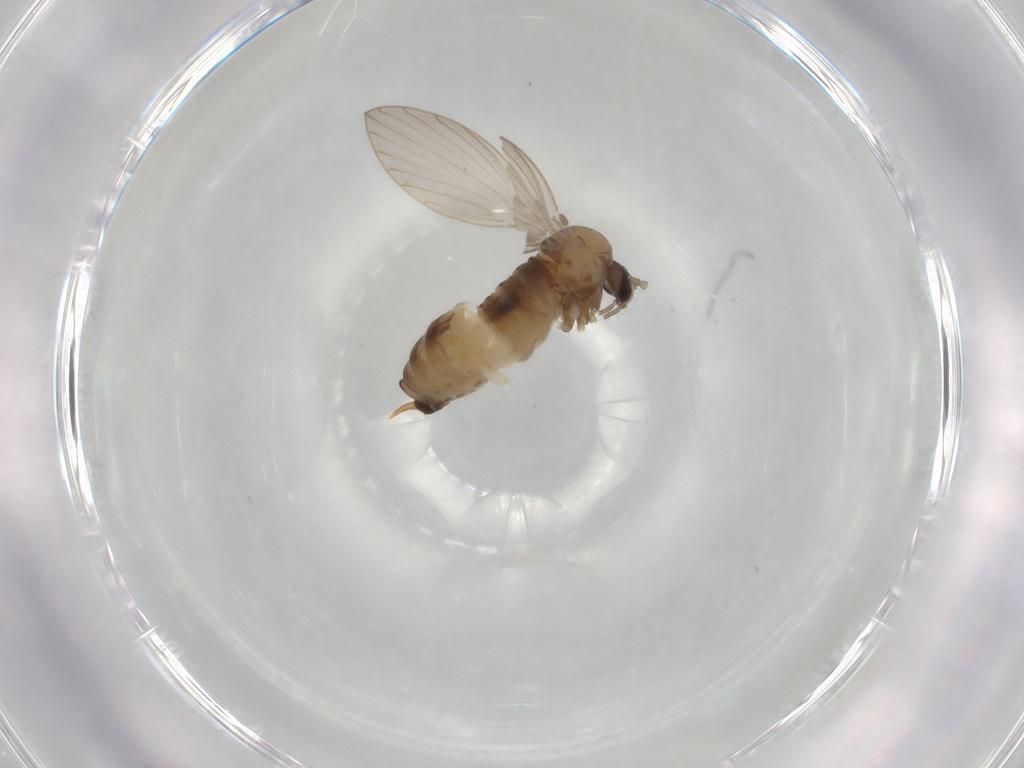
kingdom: Animalia
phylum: Arthropoda
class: Insecta
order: Diptera
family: Psychodidae
